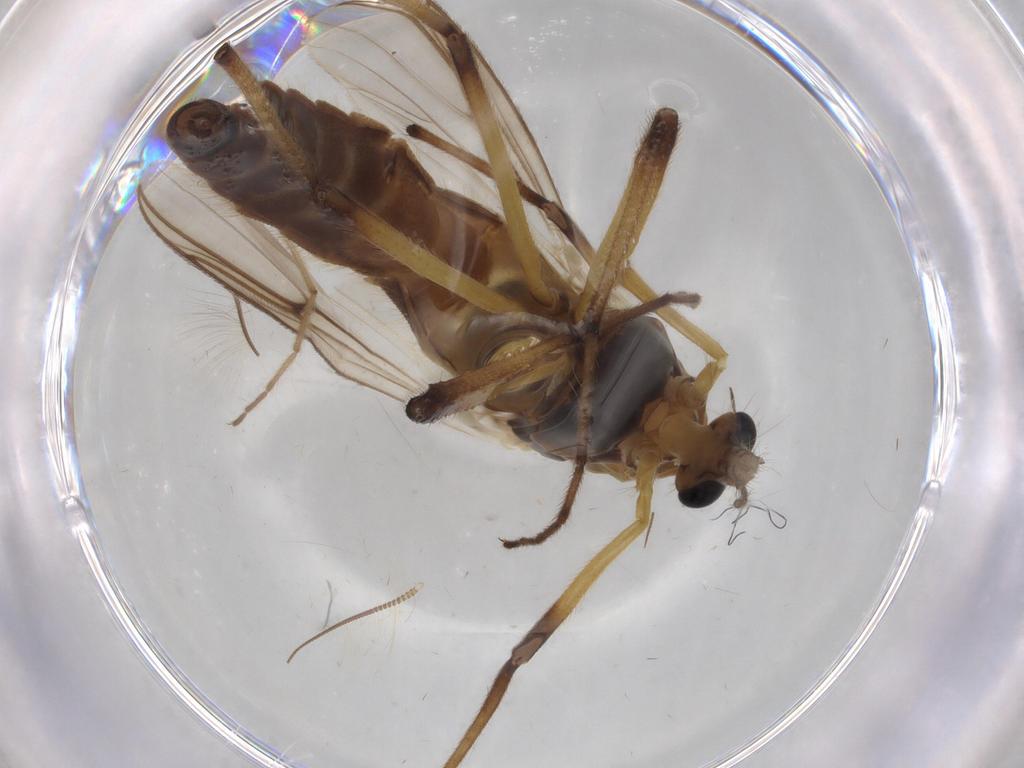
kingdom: Animalia
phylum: Arthropoda
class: Insecta
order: Diptera
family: Chironomidae
